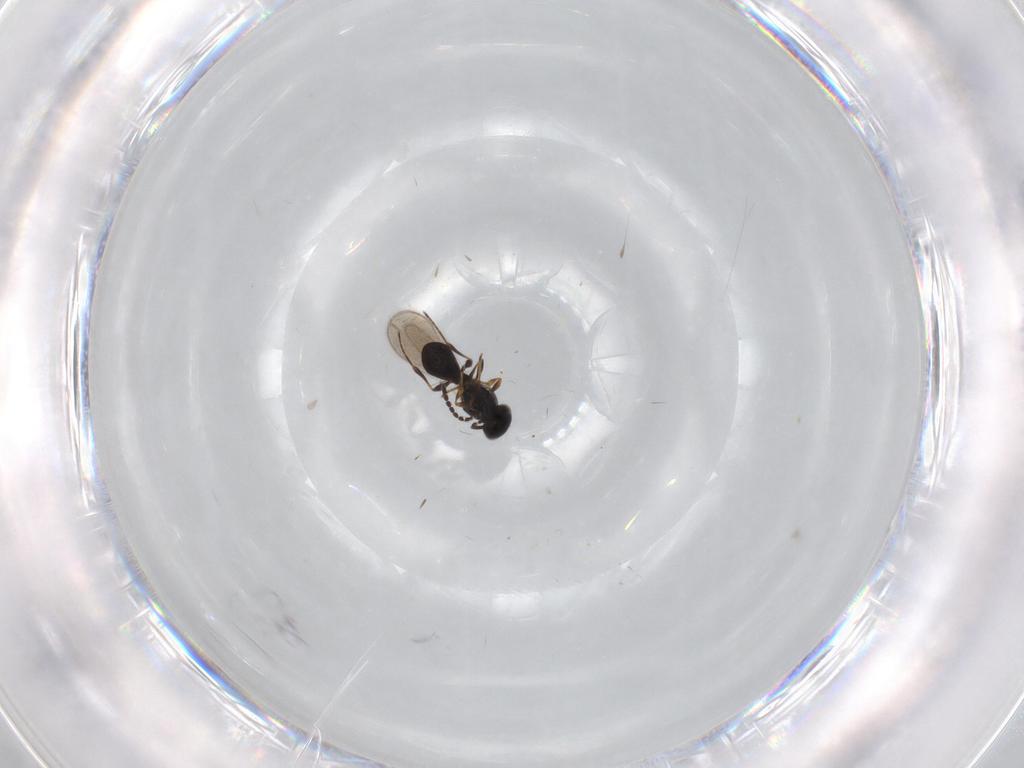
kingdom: Animalia
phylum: Arthropoda
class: Insecta
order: Hymenoptera
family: Platygastridae
